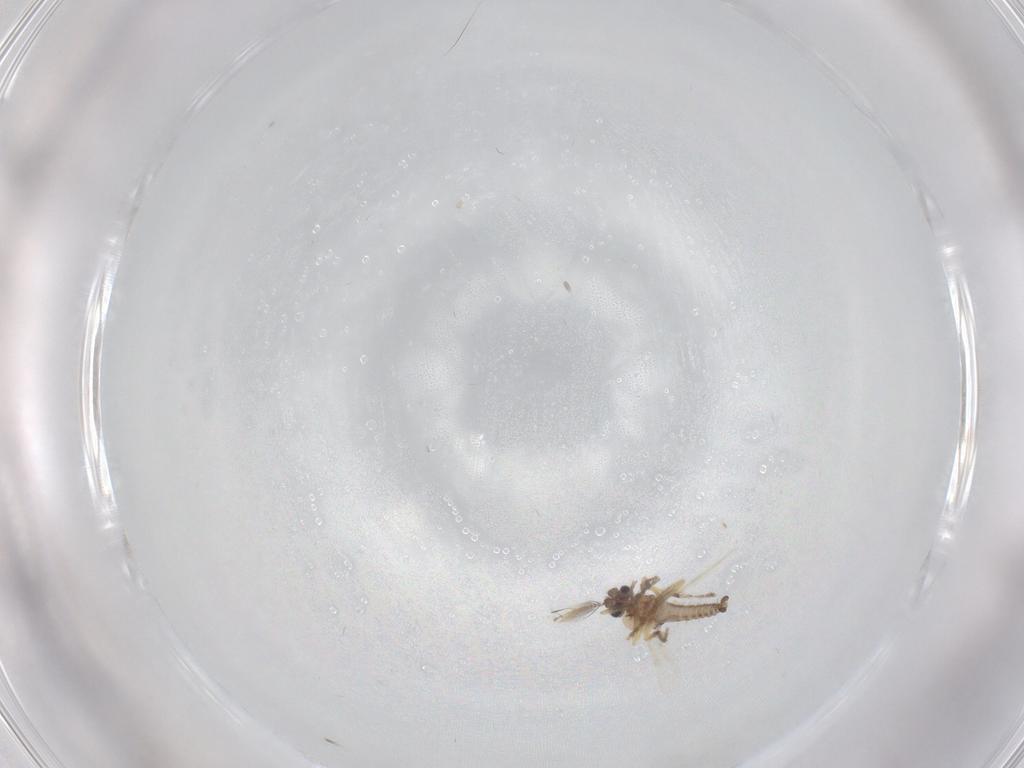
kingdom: Animalia
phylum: Arthropoda
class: Insecta
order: Diptera
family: Ceratopogonidae
